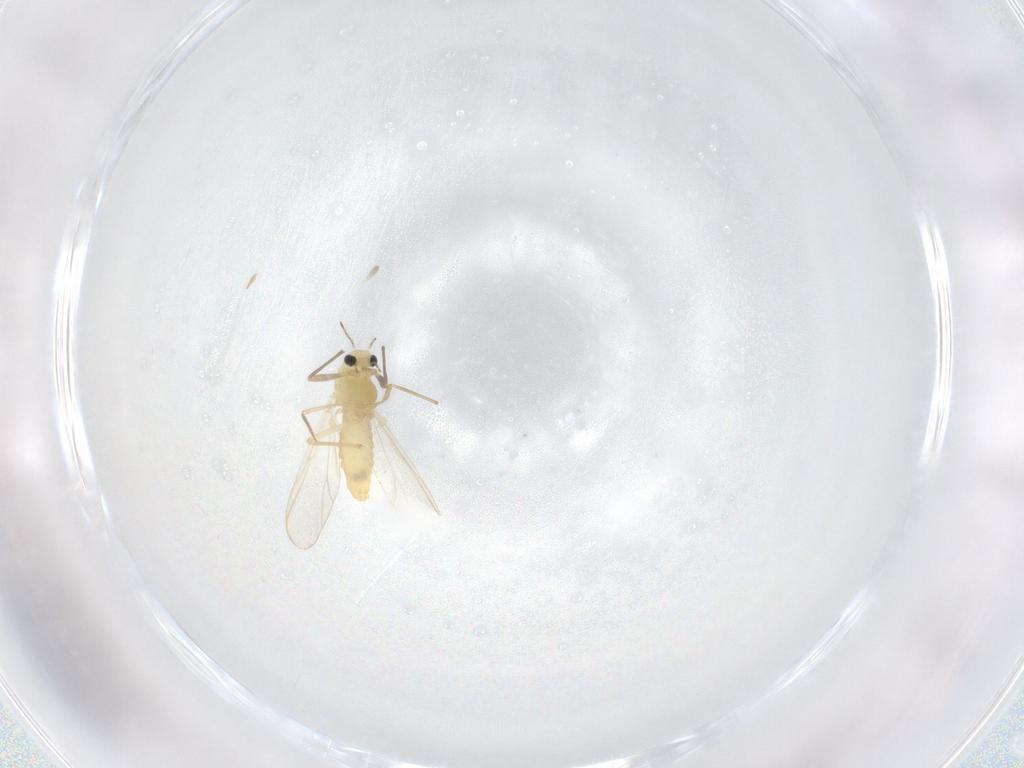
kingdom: Animalia
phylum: Arthropoda
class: Insecta
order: Diptera
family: Chironomidae
